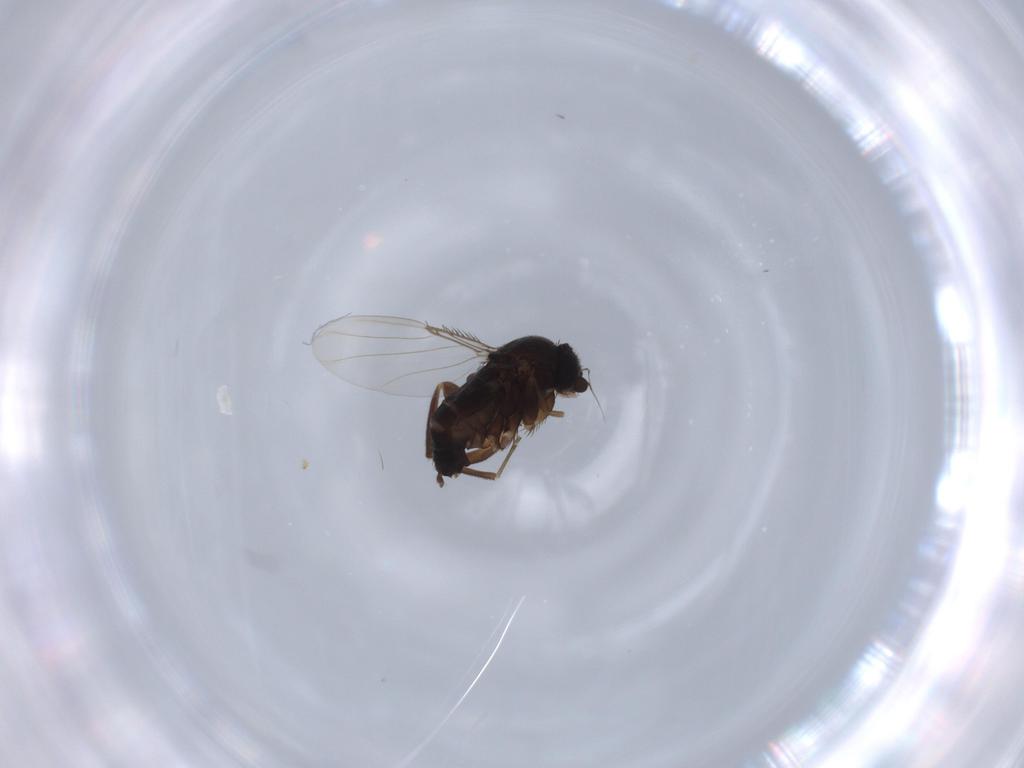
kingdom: Animalia
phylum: Arthropoda
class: Insecta
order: Diptera
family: Phoridae
